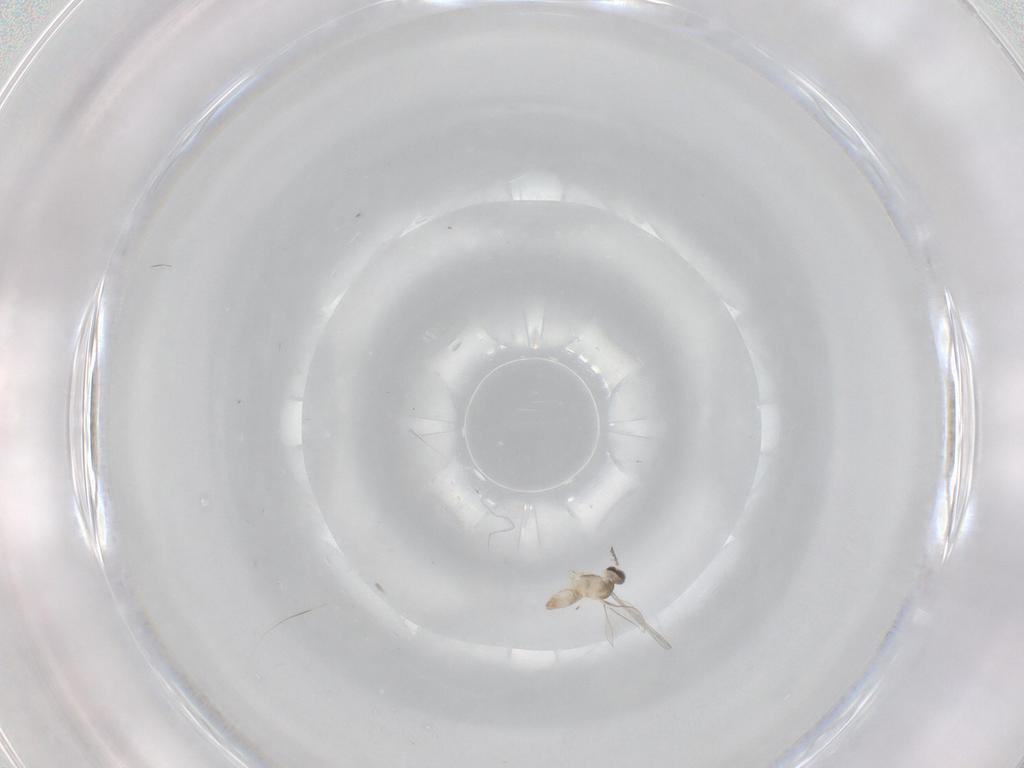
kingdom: Animalia
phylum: Arthropoda
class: Insecta
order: Diptera
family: Cecidomyiidae
